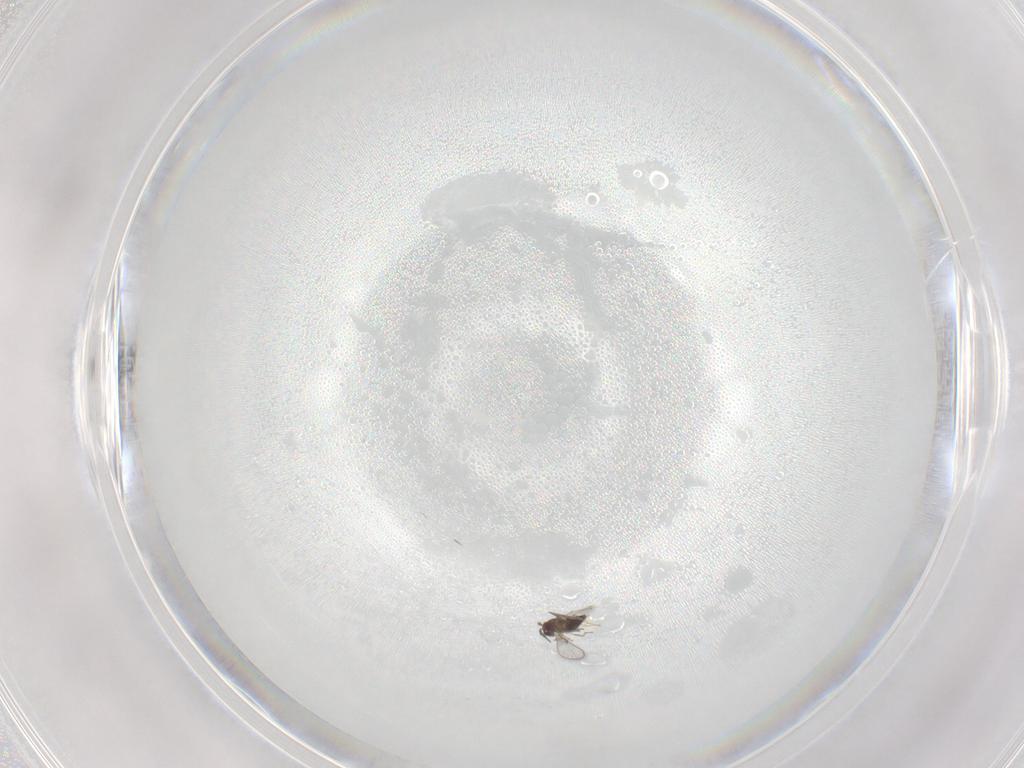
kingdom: Animalia
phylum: Arthropoda
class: Insecta
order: Hymenoptera
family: Trichogrammatidae
